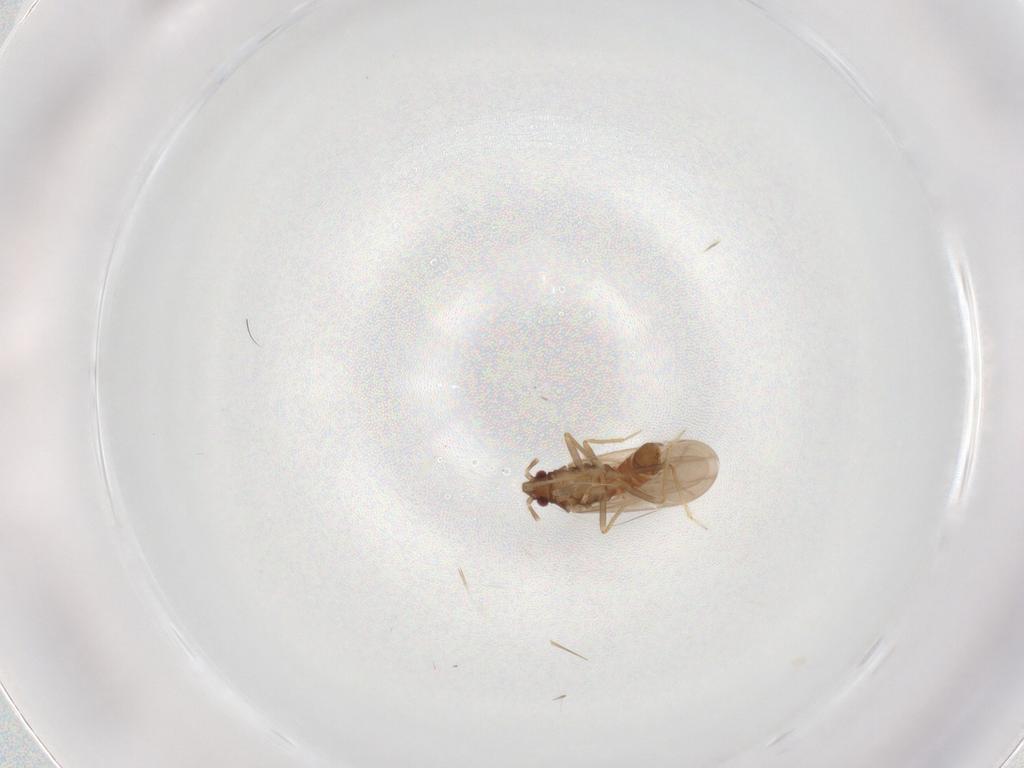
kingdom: Animalia
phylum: Arthropoda
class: Insecta
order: Hemiptera
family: Ceratocombidae
